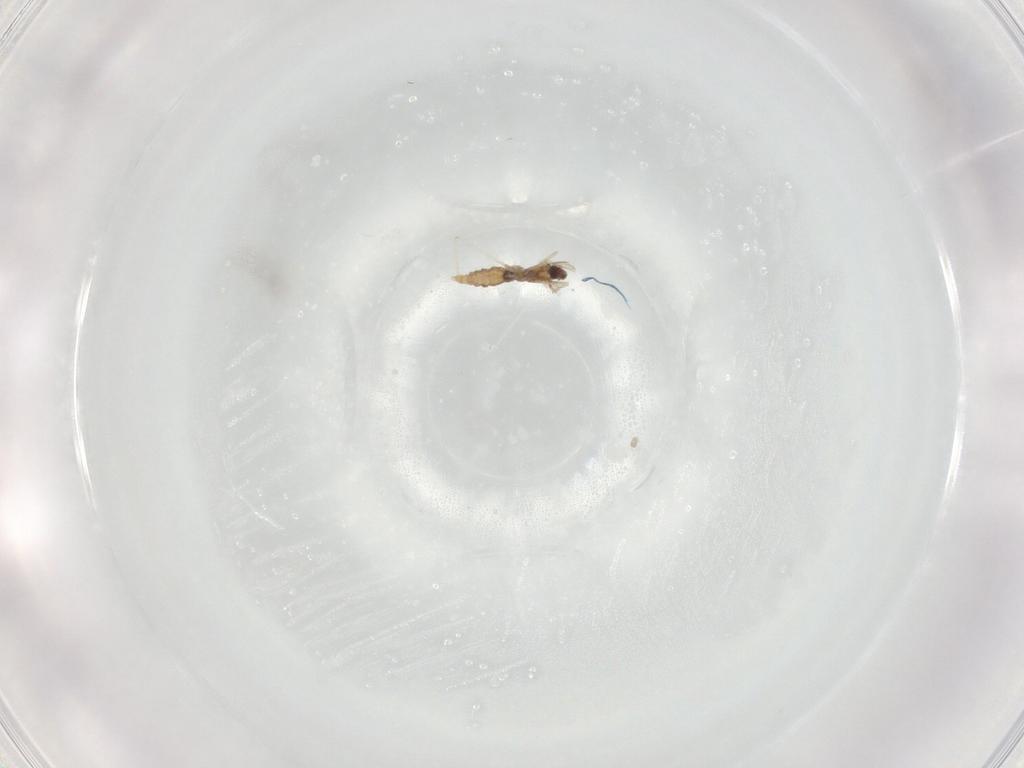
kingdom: Animalia
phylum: Arthropoda
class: Insecta
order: Diptera
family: Cecidomyiidae
